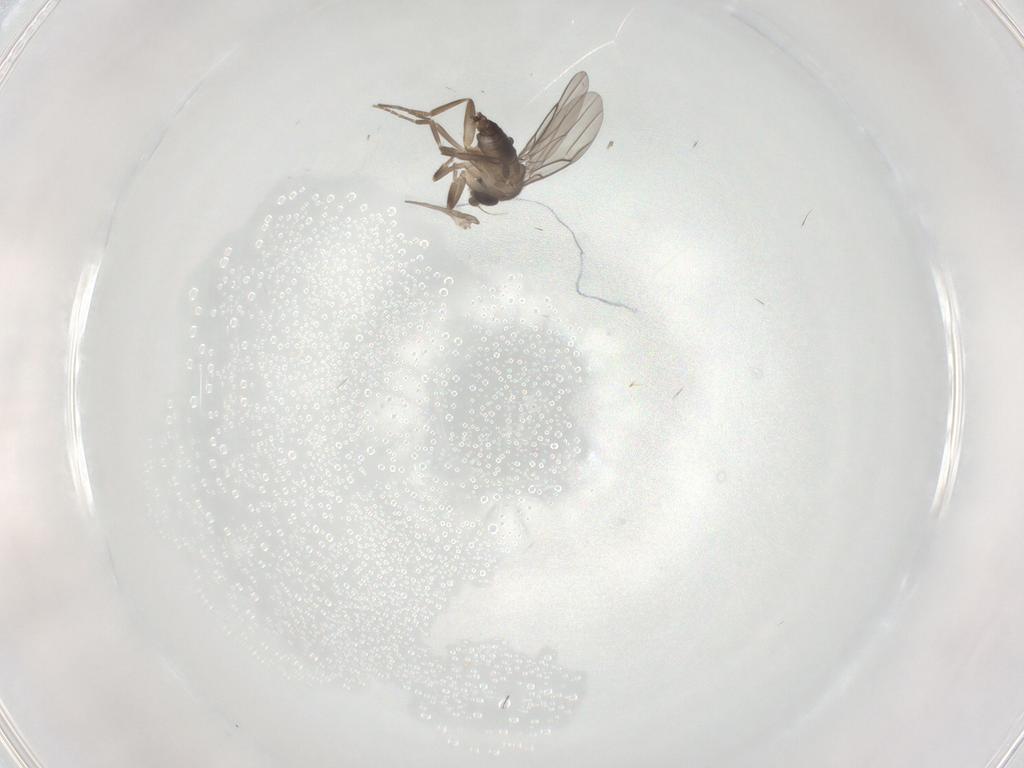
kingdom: Animalia
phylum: Arthropoda
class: Insecta
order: Diptera
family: Phoridae
